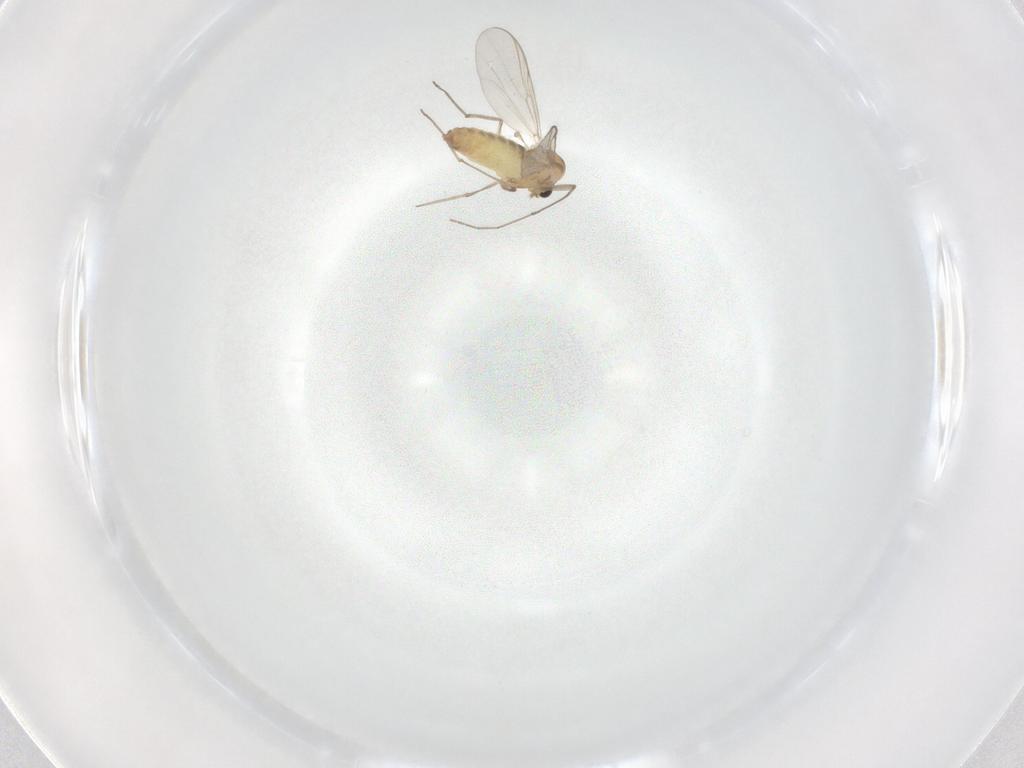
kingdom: Animalia
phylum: Arthropoda
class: Insecta
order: Diptera
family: Chironomidae
